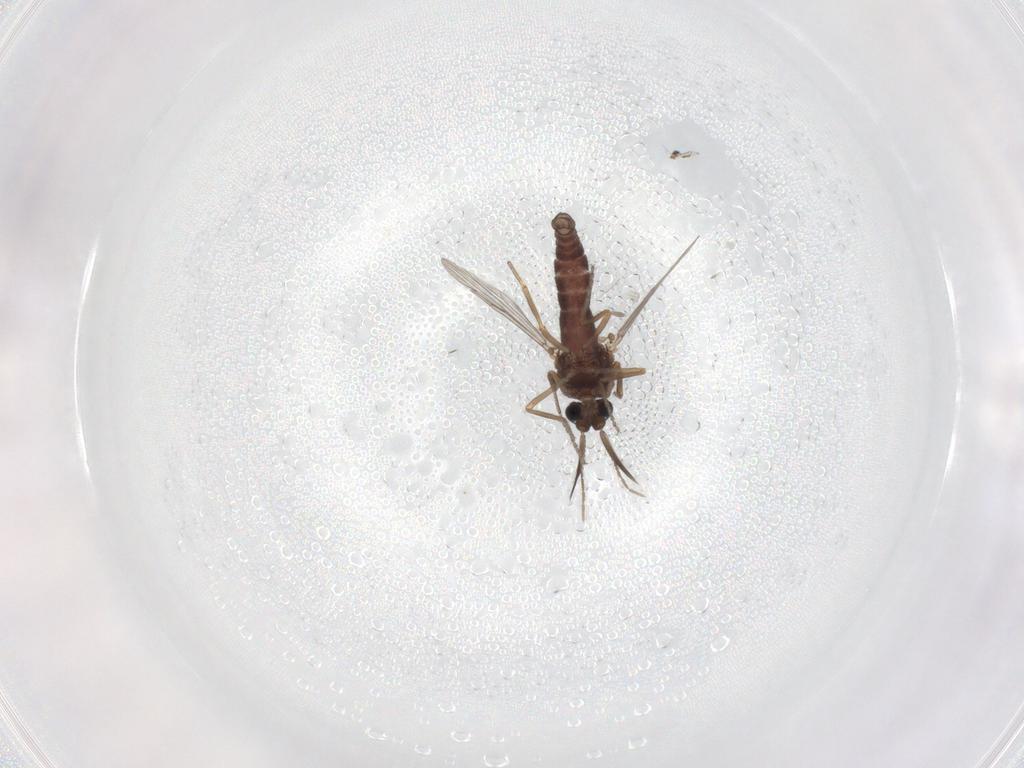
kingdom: Animalia
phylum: Arthropoda
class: Insecta
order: Diptera
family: Ceratopogonidae
